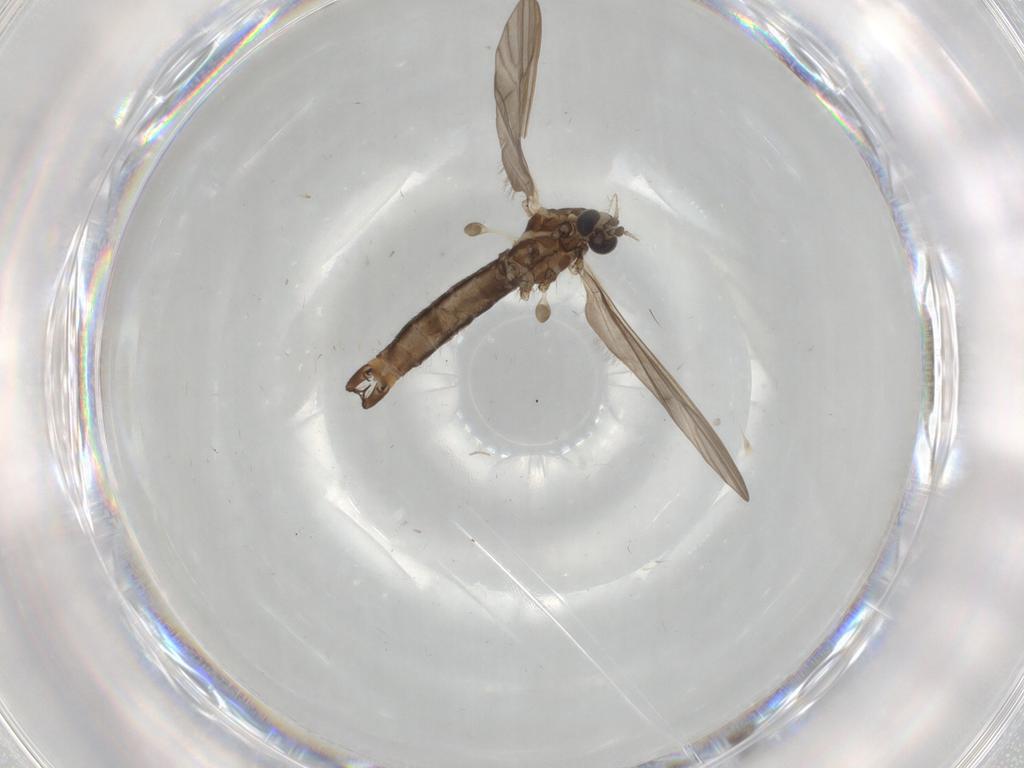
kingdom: Animalia
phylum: Arthropoda
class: Insecta
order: Diptera
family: Limoniidae
